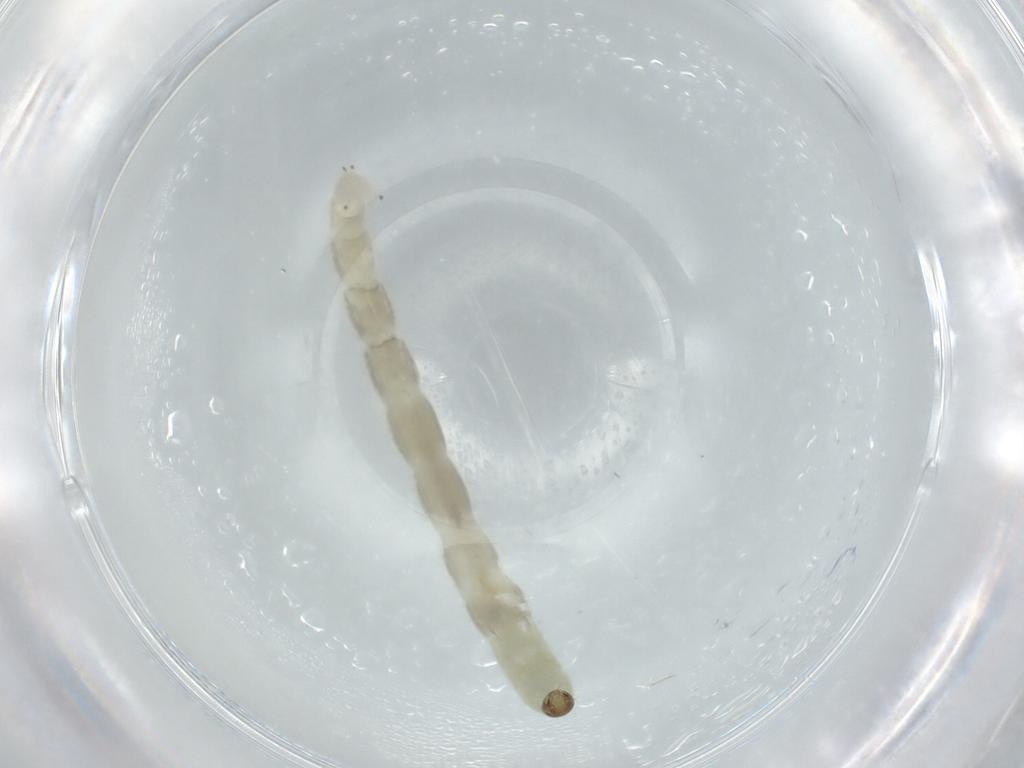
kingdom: Animalia
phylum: Arthropoda
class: Insecta
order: Diptera
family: Chironomidae
